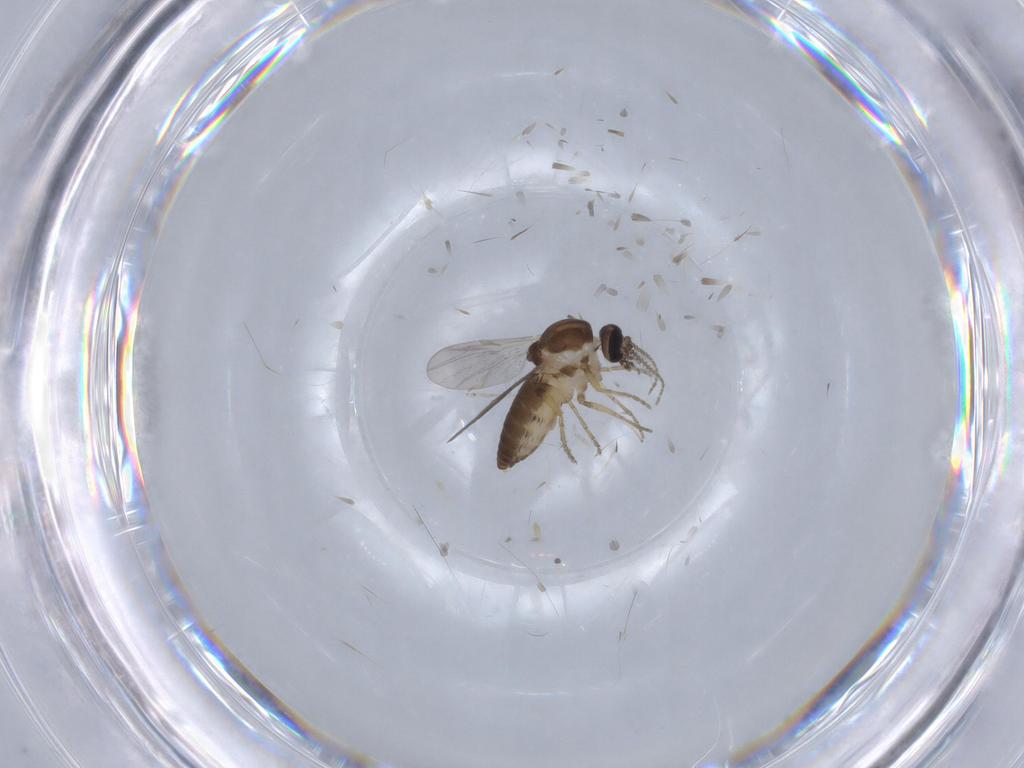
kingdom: Animalia
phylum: Arthropoda
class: Insecta
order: Diptera
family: Ceratopogonidae
